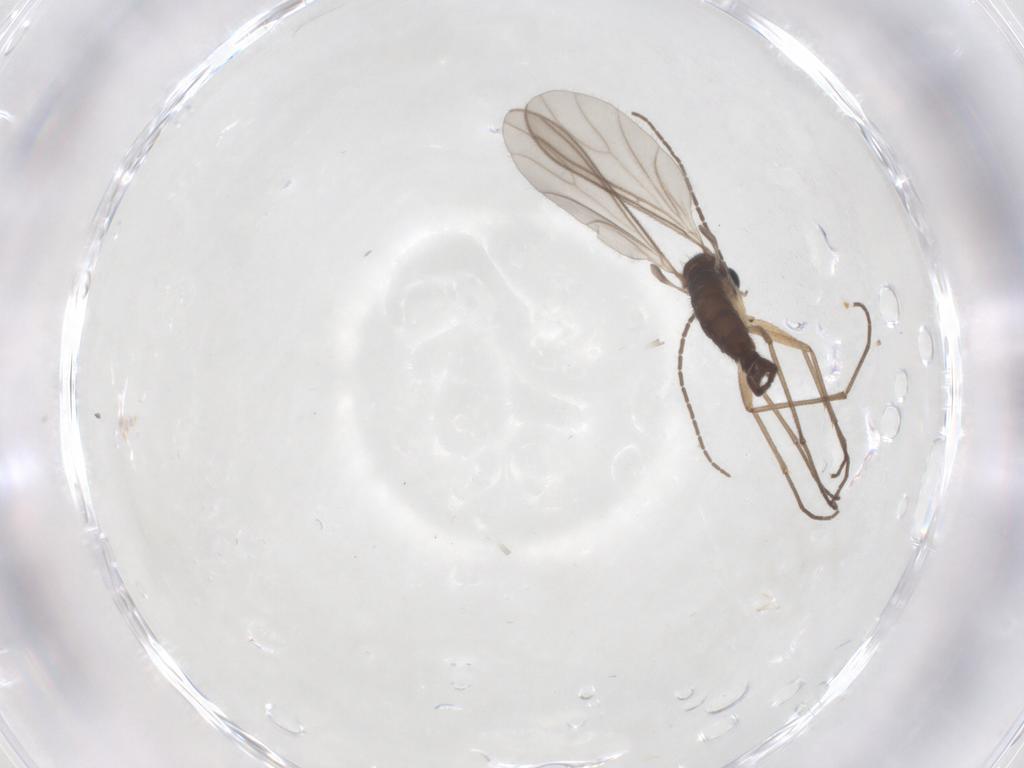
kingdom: Animalia
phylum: Arthropoda
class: Insecta
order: Diptera
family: Sciaridae
